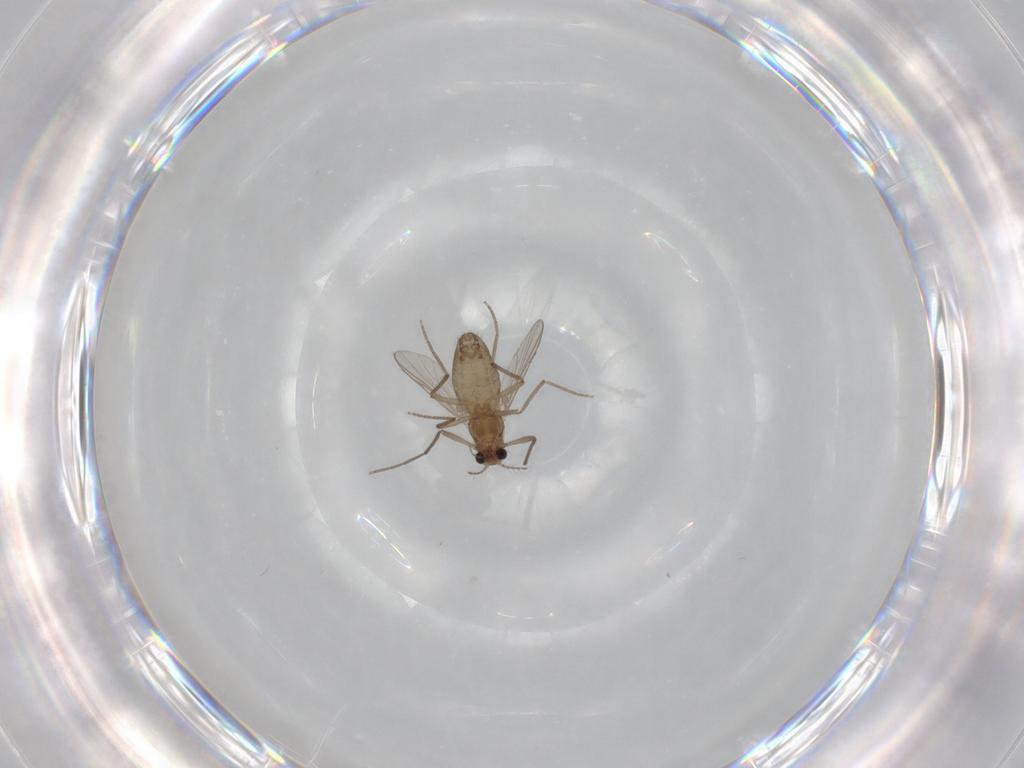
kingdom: Animalia
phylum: Arthropoda
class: Insecta
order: Diptera
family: Chironomidae
